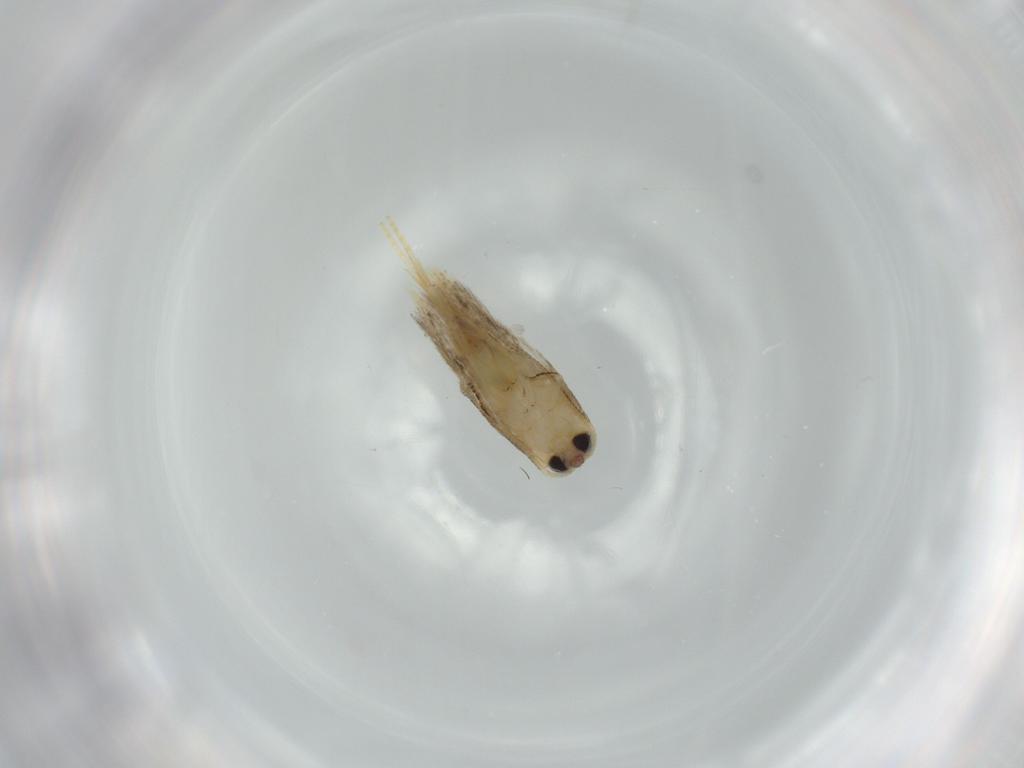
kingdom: Animalia
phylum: Arthropoda
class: Insecta
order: Lepidoptera
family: Nepticulidae
